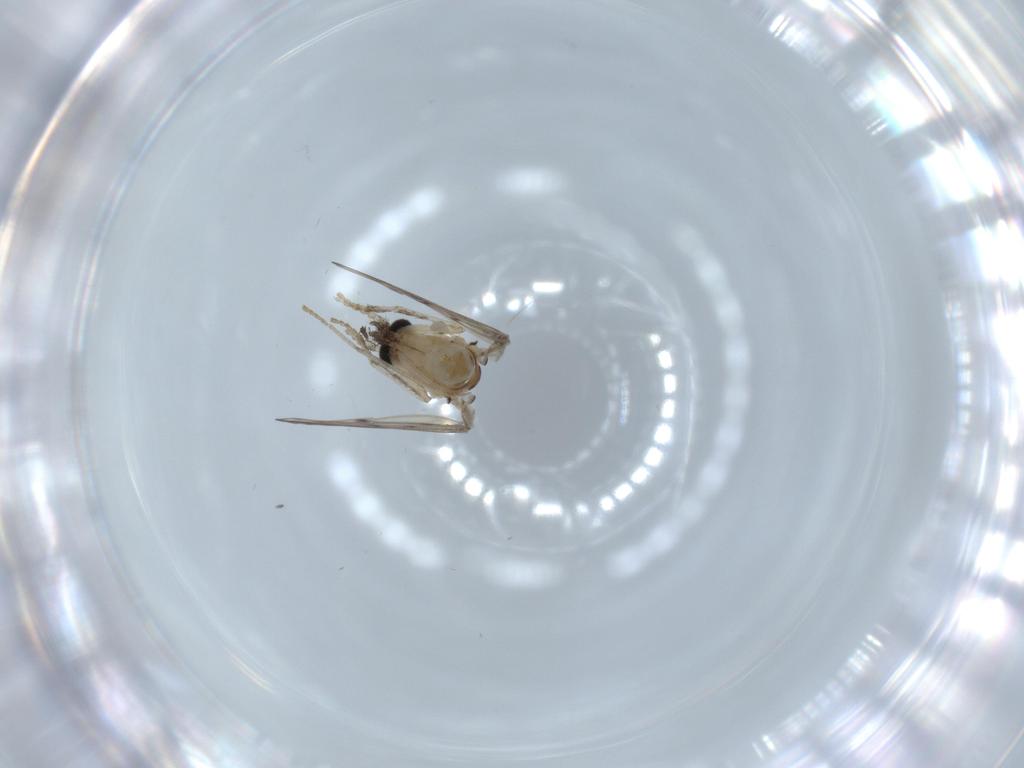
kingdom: Animalia
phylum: Arthropoda
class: Insecta
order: Diptera
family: Psychodidae
